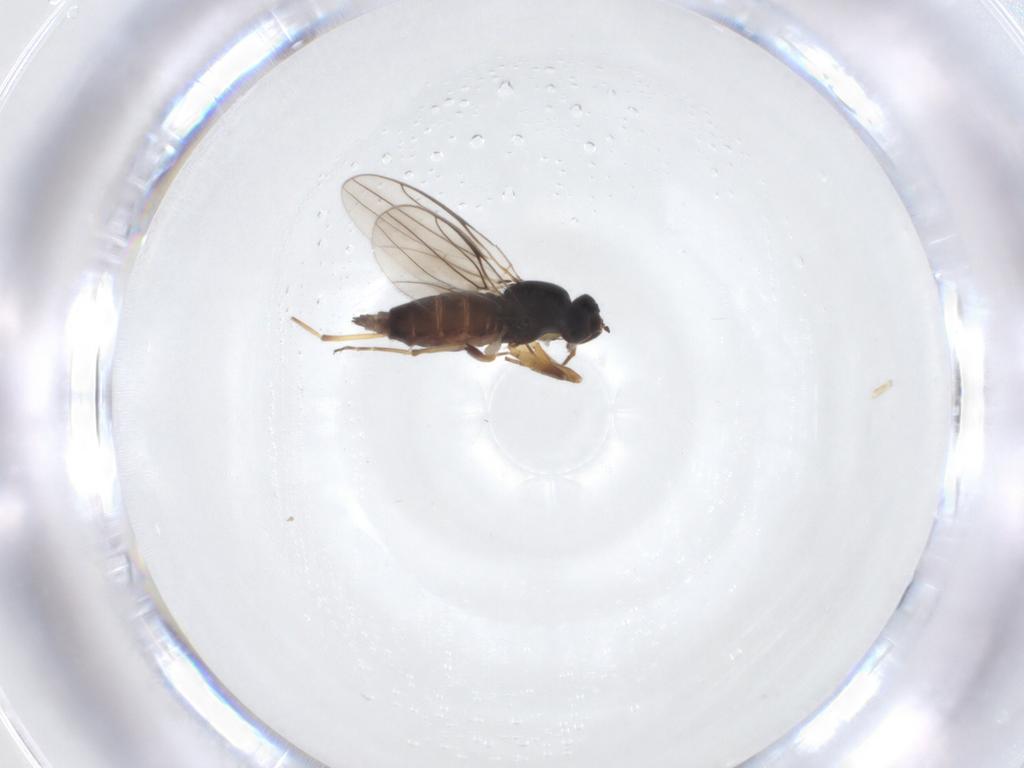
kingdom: Animalia
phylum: Arthropoda
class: Insecta
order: Diptera
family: Hybotidae
